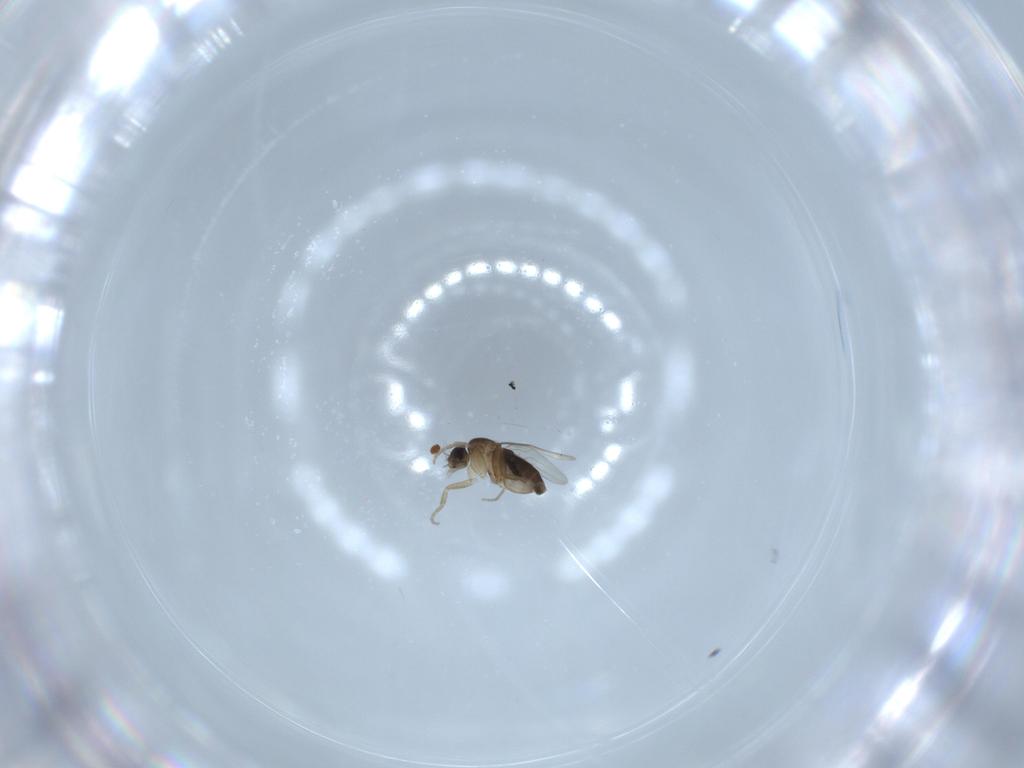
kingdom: Animalia
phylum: Arthropoda
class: Insecta
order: Diptera
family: Phoridae
